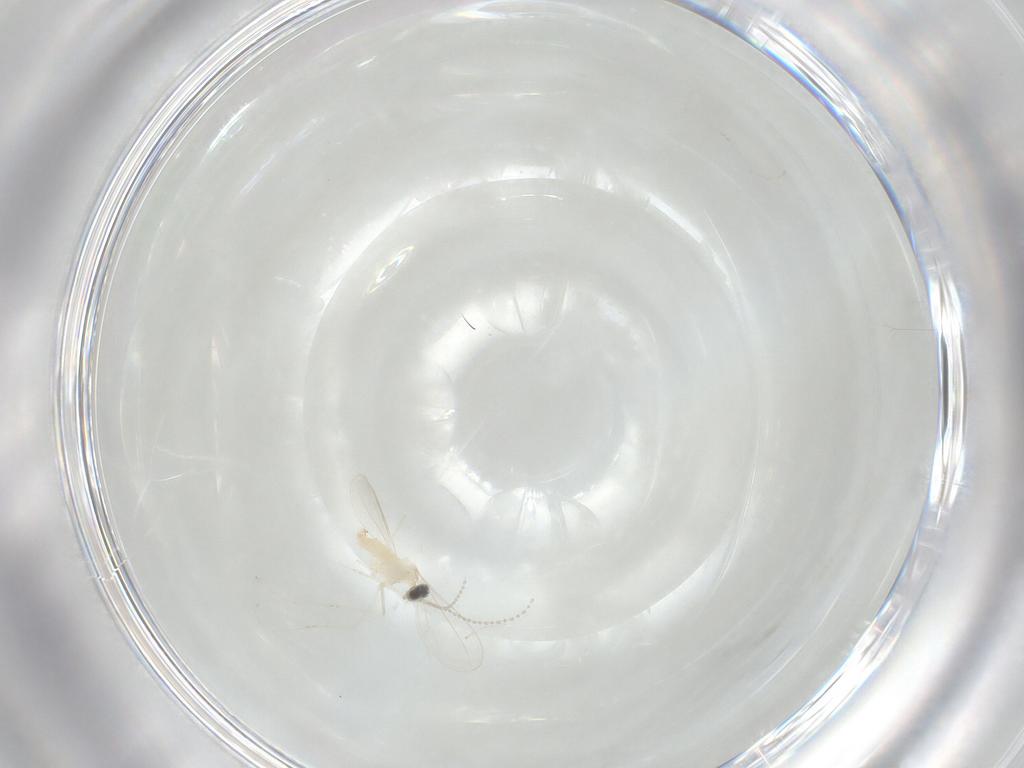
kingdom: Animalia
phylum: Arthropoda
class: Insecta
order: Diptera
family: Cecidomyiidae
